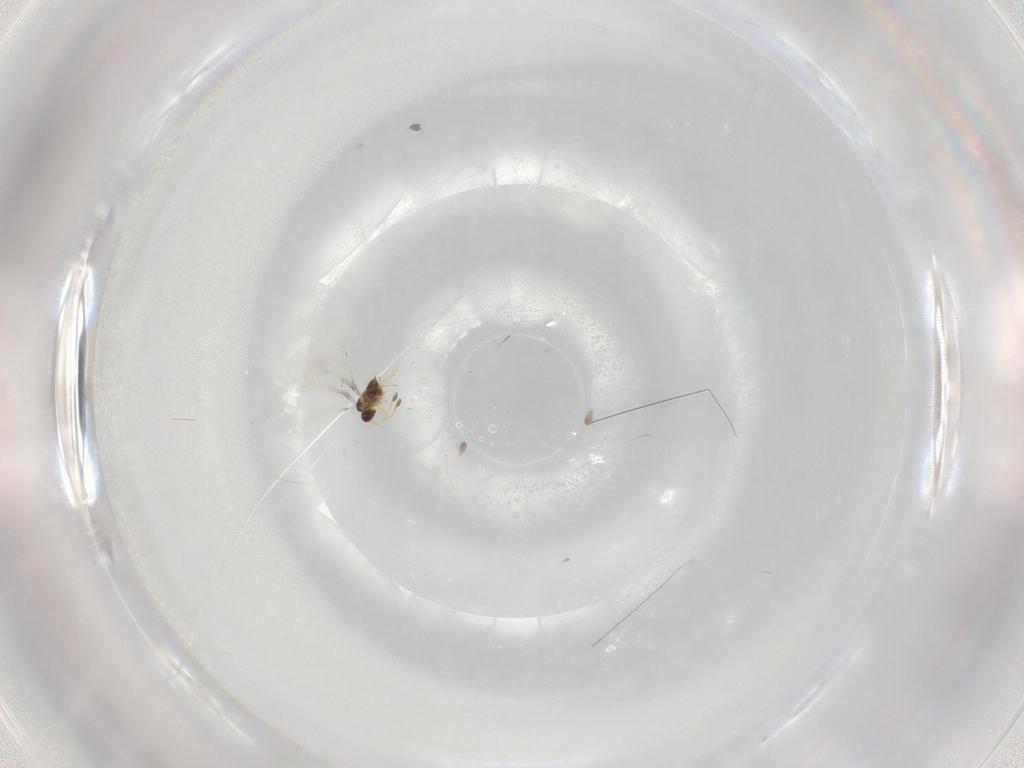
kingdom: Animalia
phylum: Arthropoda
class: Insecta
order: Hymenoptera
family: Mymaridae
